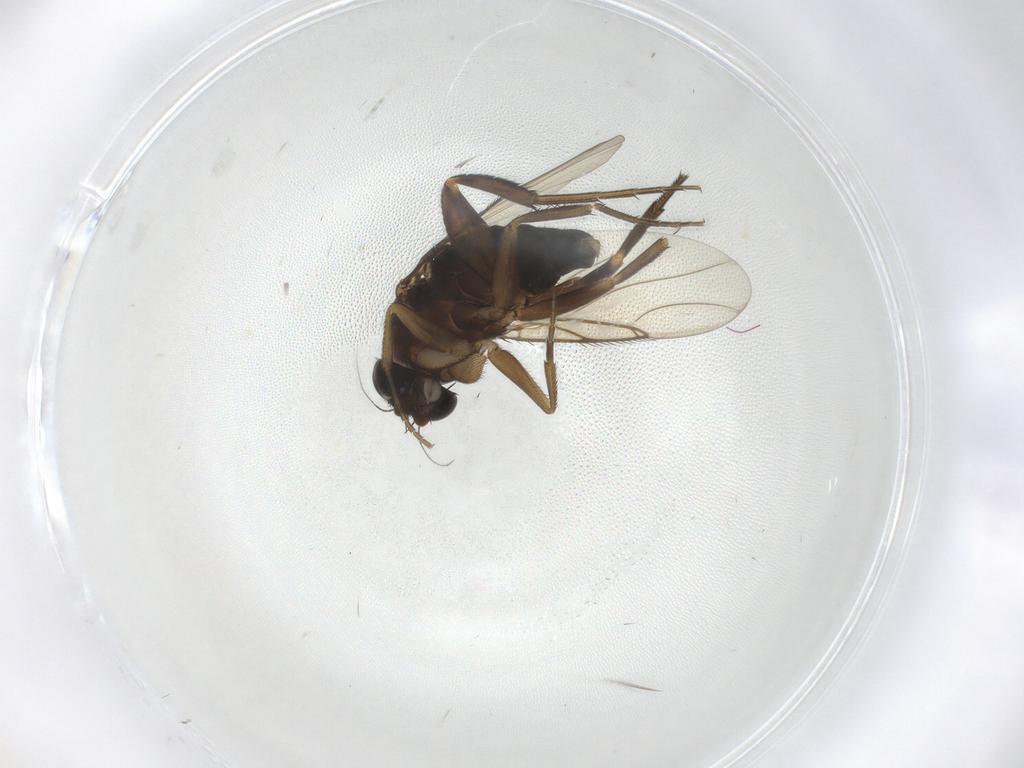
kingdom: Animalia
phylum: Arthropoda
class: Insecta
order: Diptera
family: Phoridae
